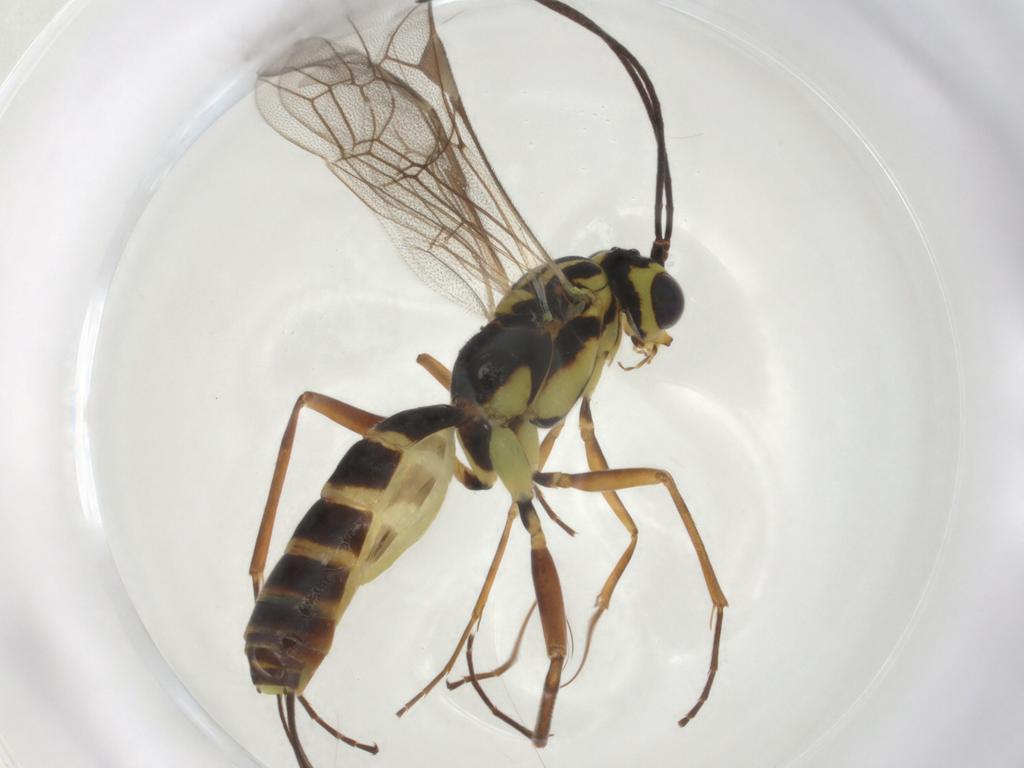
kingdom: Animalia
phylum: Arthropoda
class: Insecta
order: Hymenoptera
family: Platygastridae
